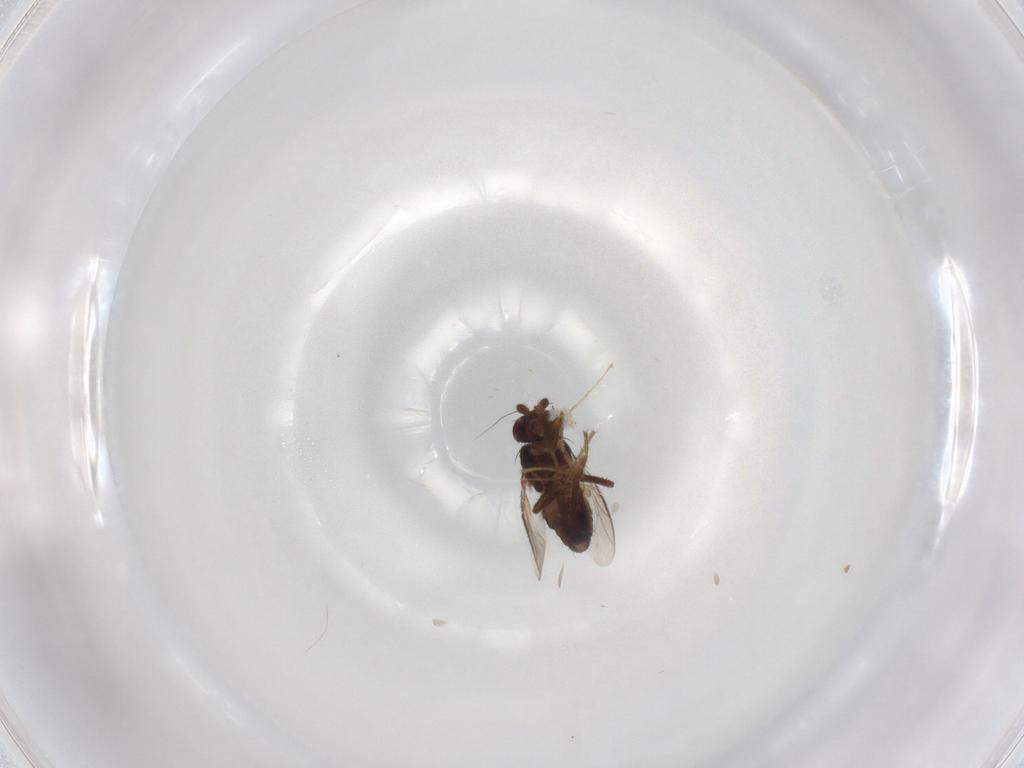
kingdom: Animalia
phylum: Arthropoda
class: Insecta
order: Diptera
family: Sphaeroceridae
